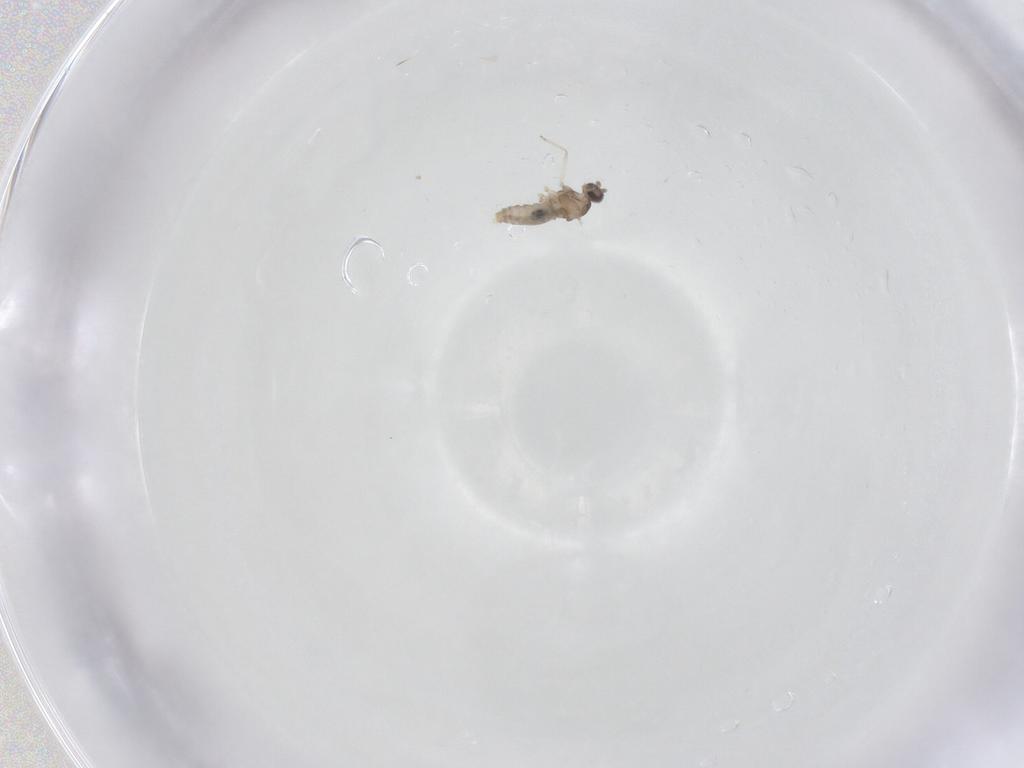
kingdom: Animalia
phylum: Arthropoda
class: Insecta
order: Diptera
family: Cecidomyiidae
